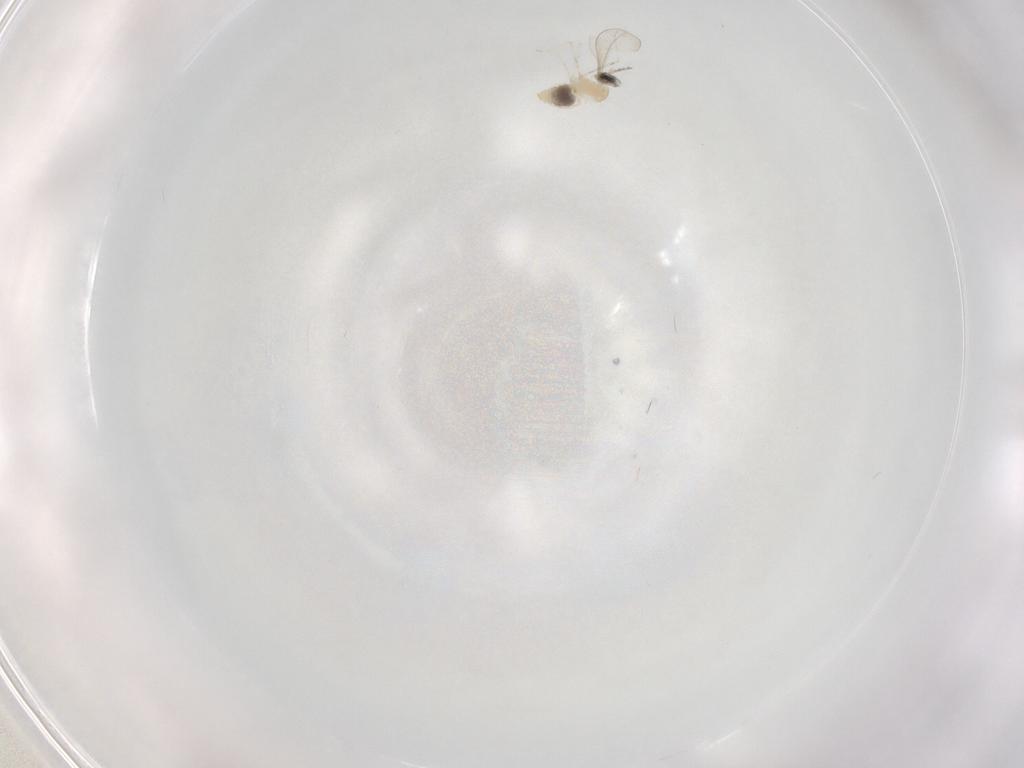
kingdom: Animalia
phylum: Arthropoda
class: Insecta
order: Diptera
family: Cecidomyiidae
